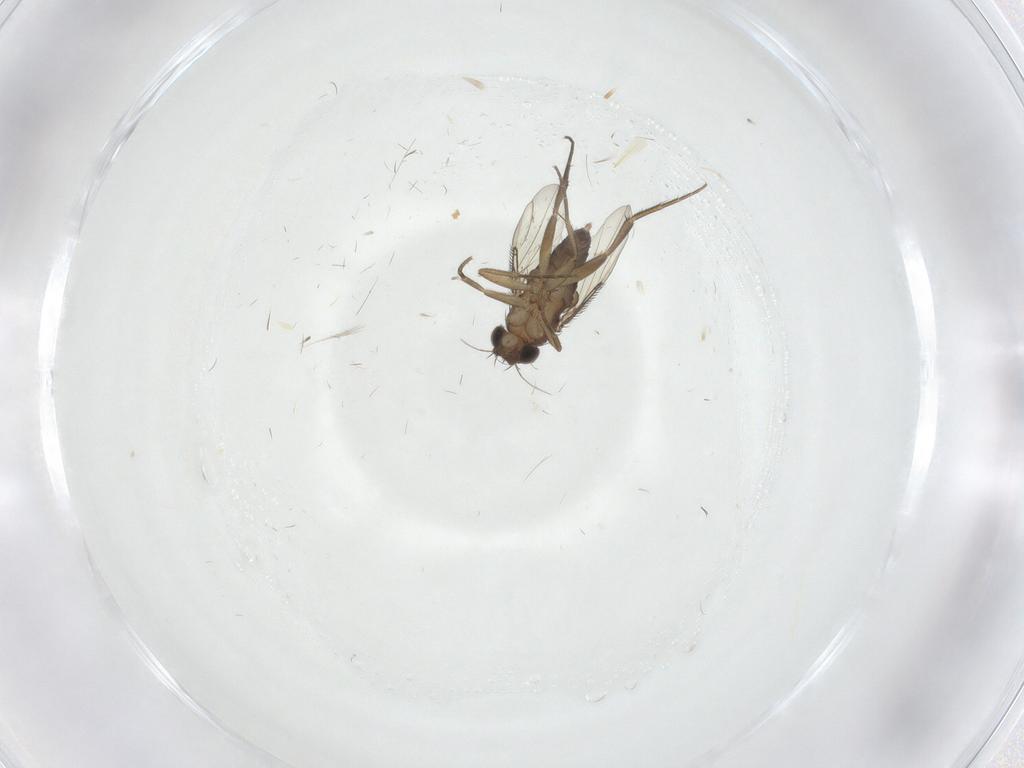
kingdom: Animalia
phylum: Arthropoda
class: Insecta
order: Diptera
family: Phoridae
